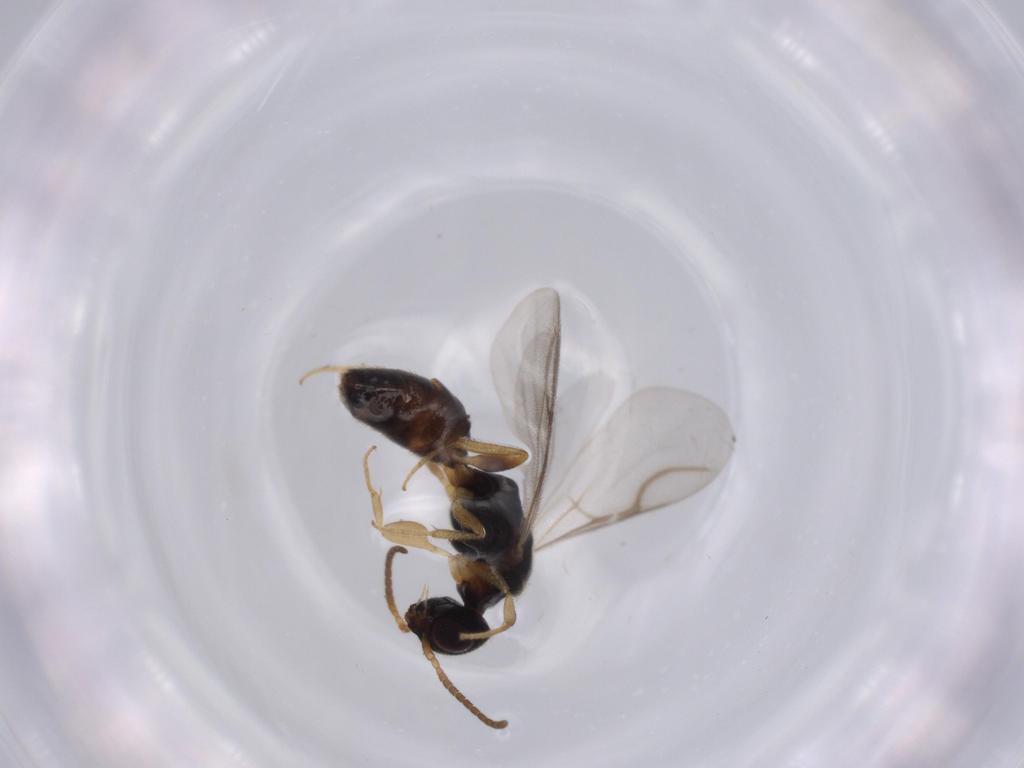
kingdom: Animalia
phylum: Arthropoda
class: Insecta
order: Hymenoptera
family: Bethylidae
